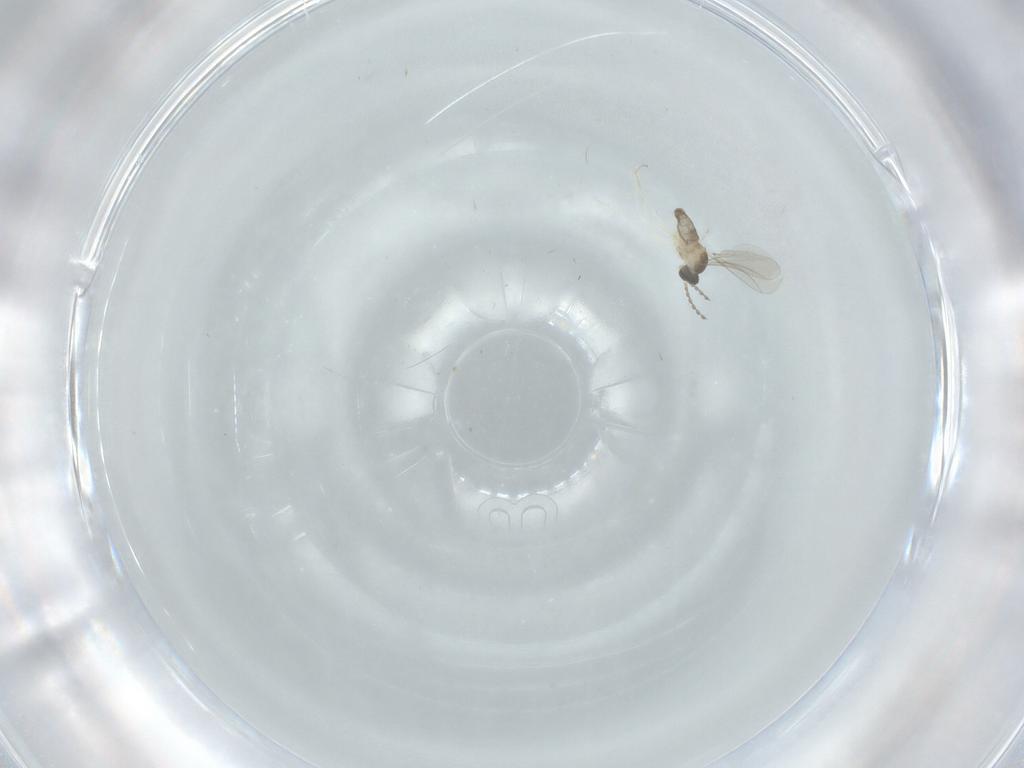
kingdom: Animalia
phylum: Arthropoda
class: Insecta
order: Diptera
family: Cecidomyiidae
